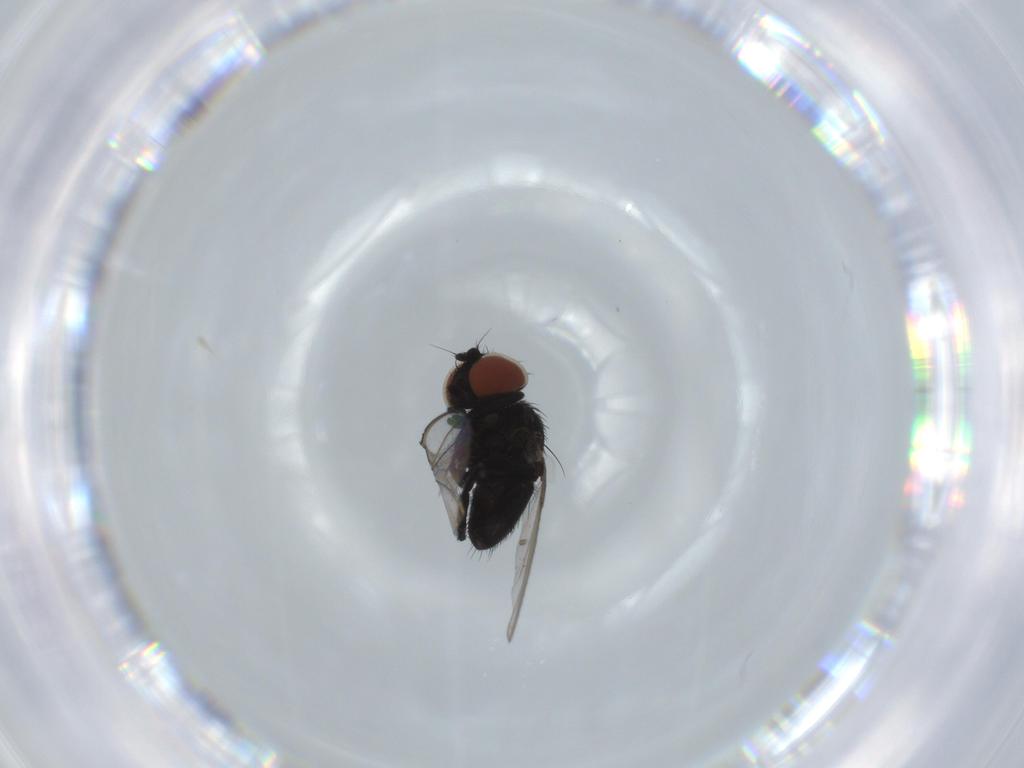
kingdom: Animalia
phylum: Arthropoda
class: Insecta
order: Diptera
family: Milichiidae
